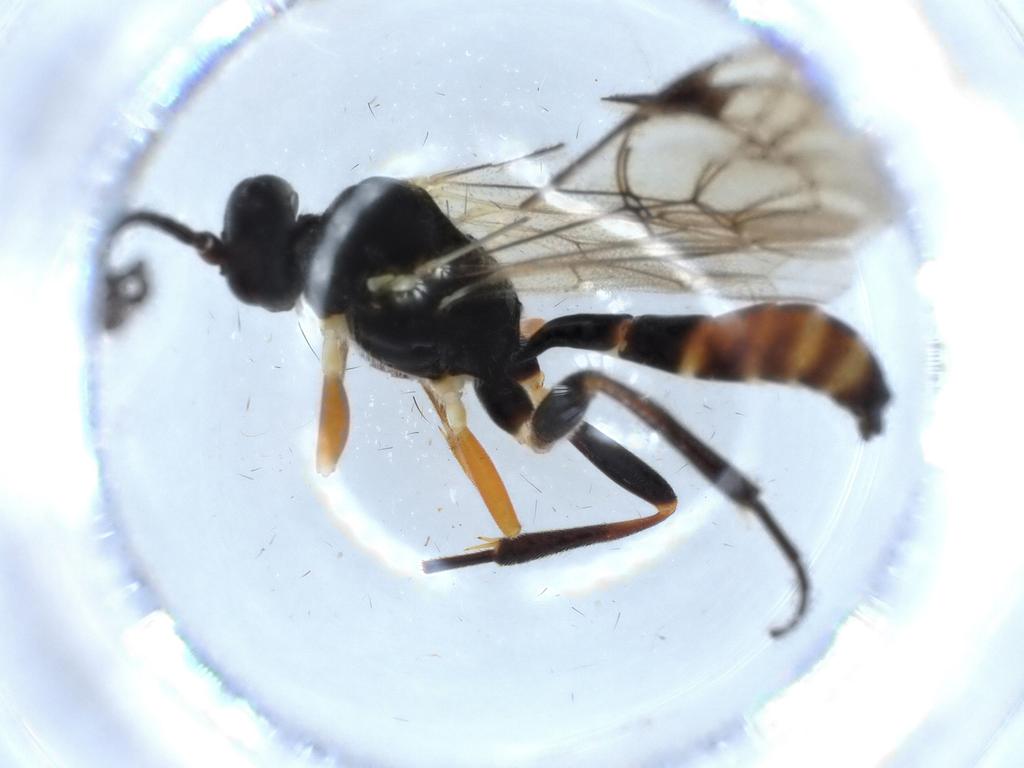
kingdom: Animalia
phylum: Arthropoda
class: Insecta
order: Hymenoptera
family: Ichneumonidae
